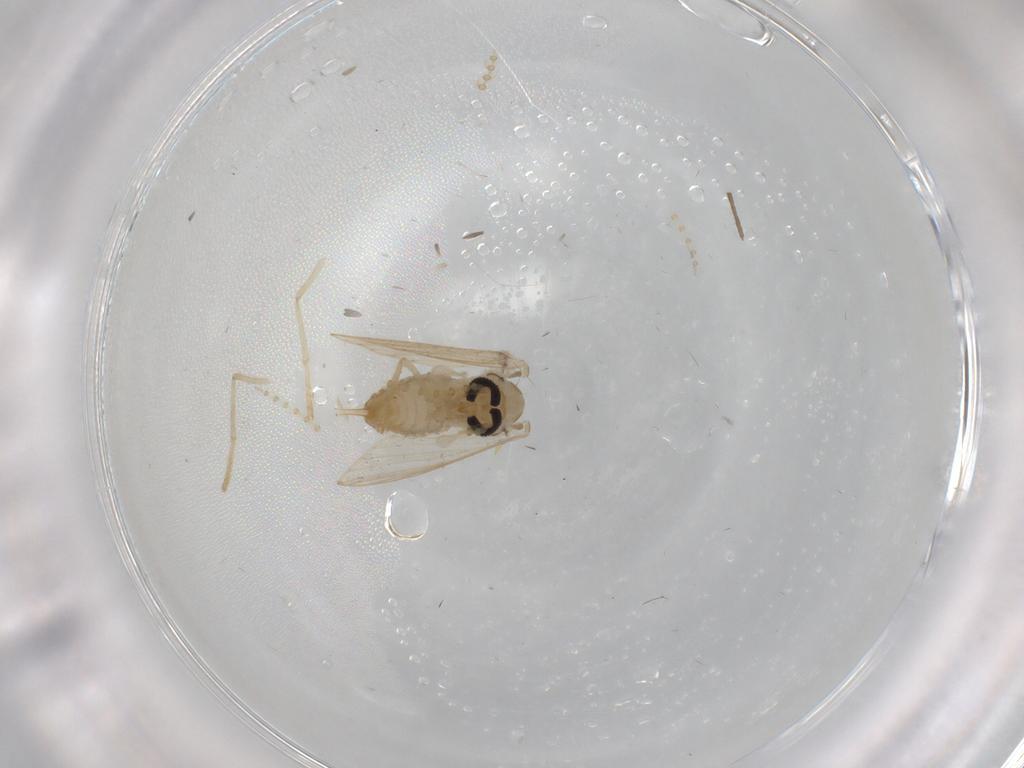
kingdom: Animalia
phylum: Arthropoda
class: Insecta
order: Diptera
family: Psychodidae
